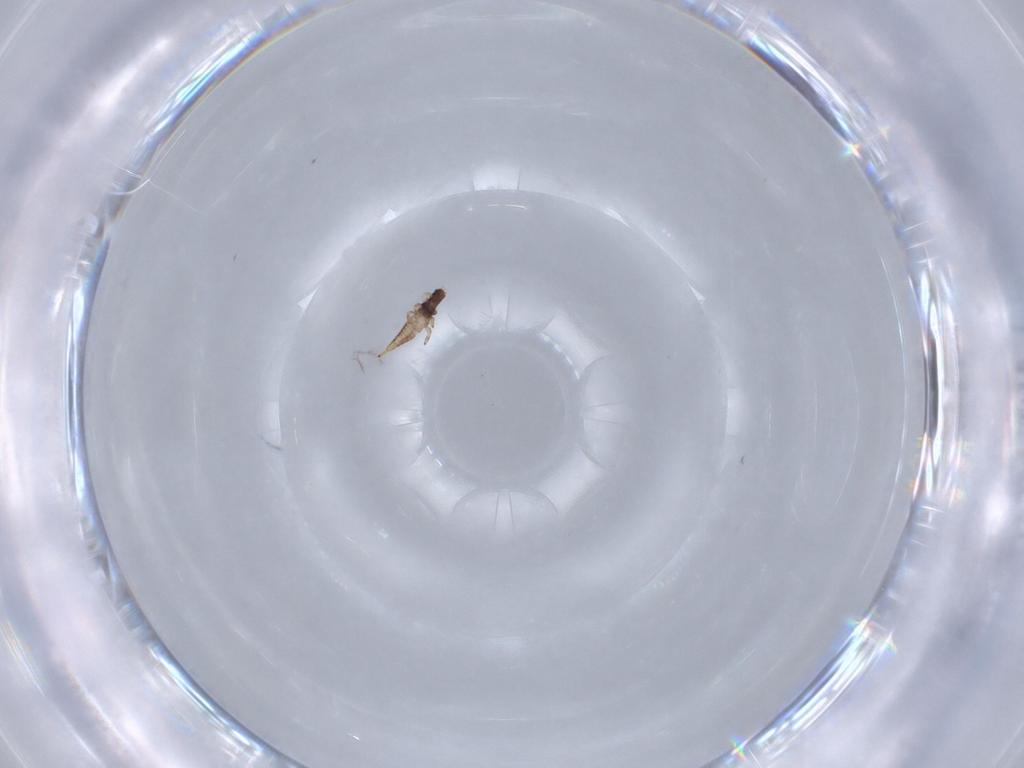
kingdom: Animalia
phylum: Arthropoda
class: Insecta
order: Thysanoptera
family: Phlaeothripidae
